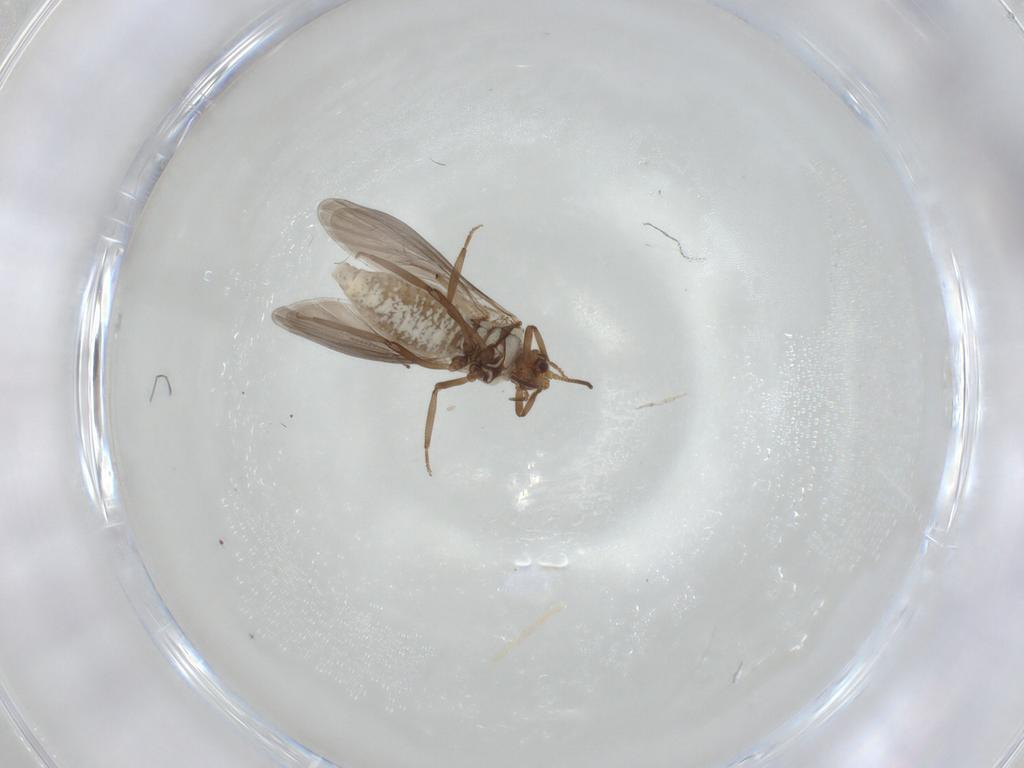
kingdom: Animalia
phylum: Arthropoda
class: Insecta
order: Neuroptera
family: Coniopterygidae
